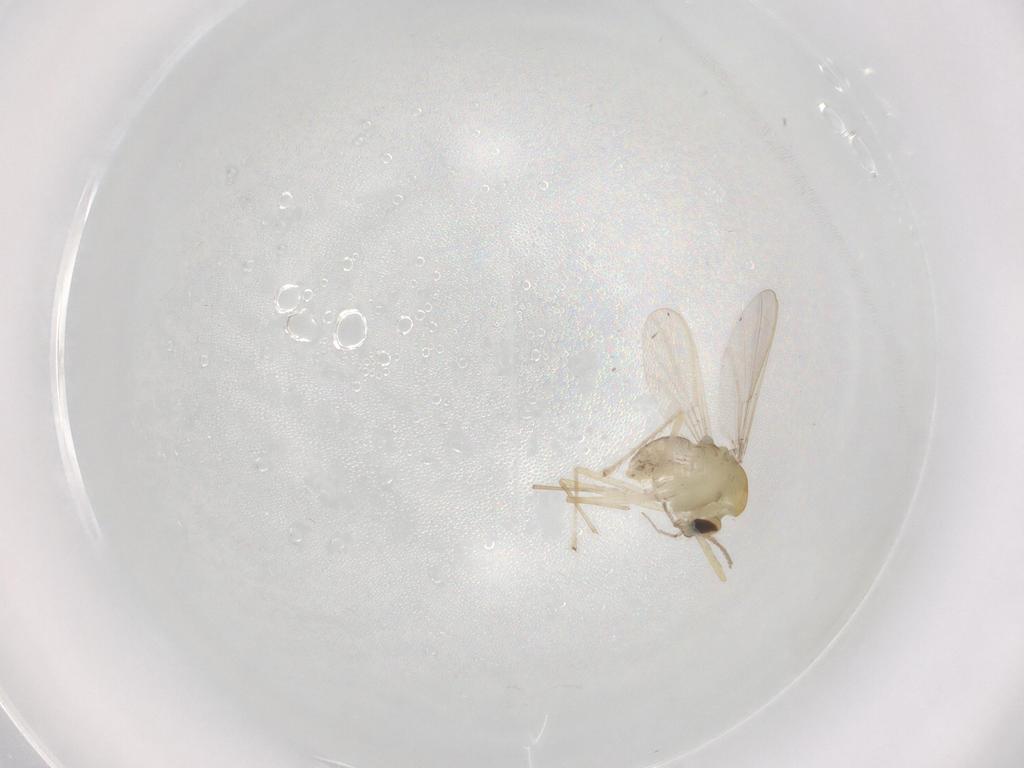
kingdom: Animalia
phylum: Arthropoda
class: Insecta
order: Diptera
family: Chironomidae
